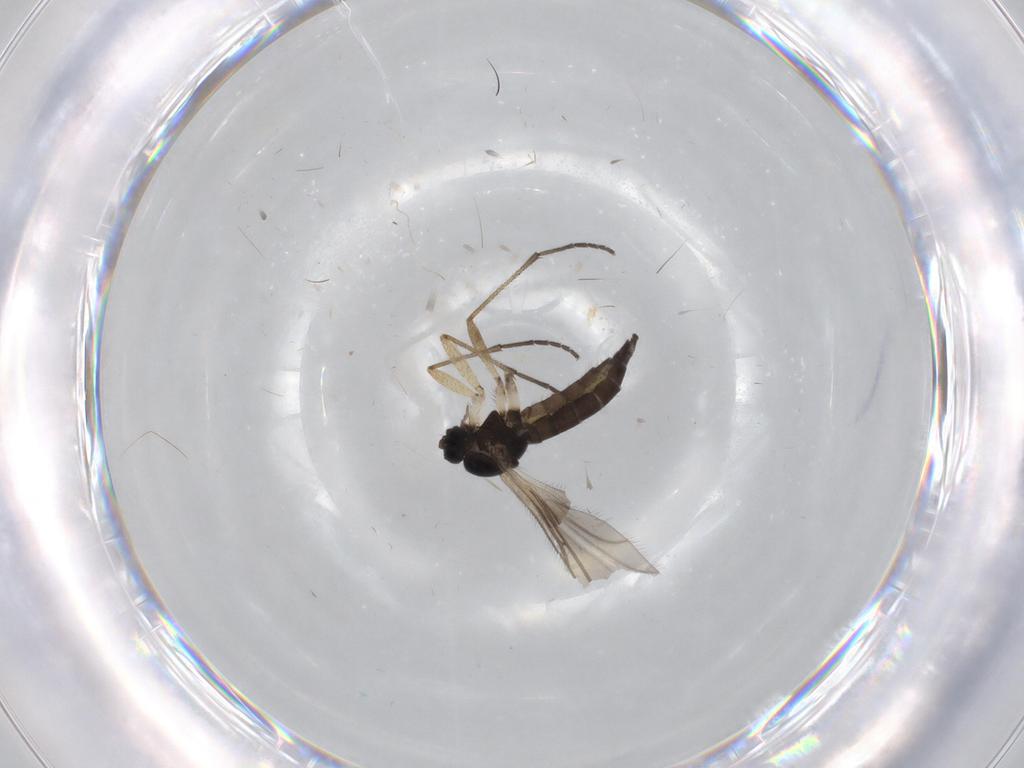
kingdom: Animalia
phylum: Arthropoda
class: Insecta
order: Diptera
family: Sciaridae
